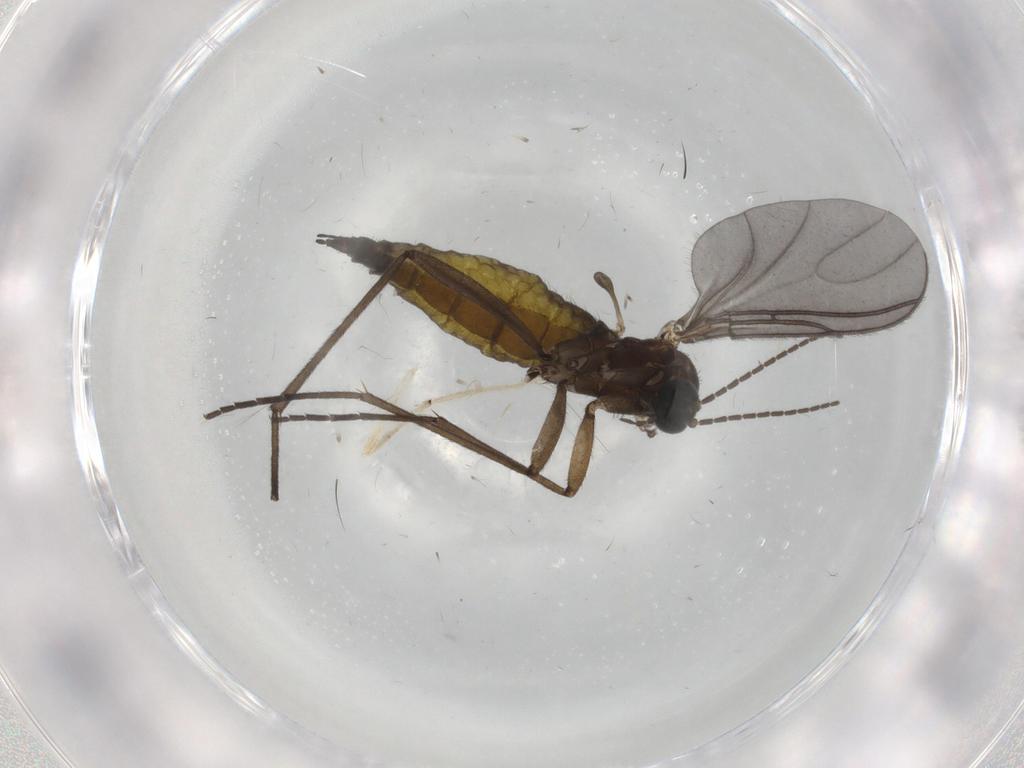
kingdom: Animalia
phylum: Arthropoda
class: Insecta
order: Diptera
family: Sciaridae
